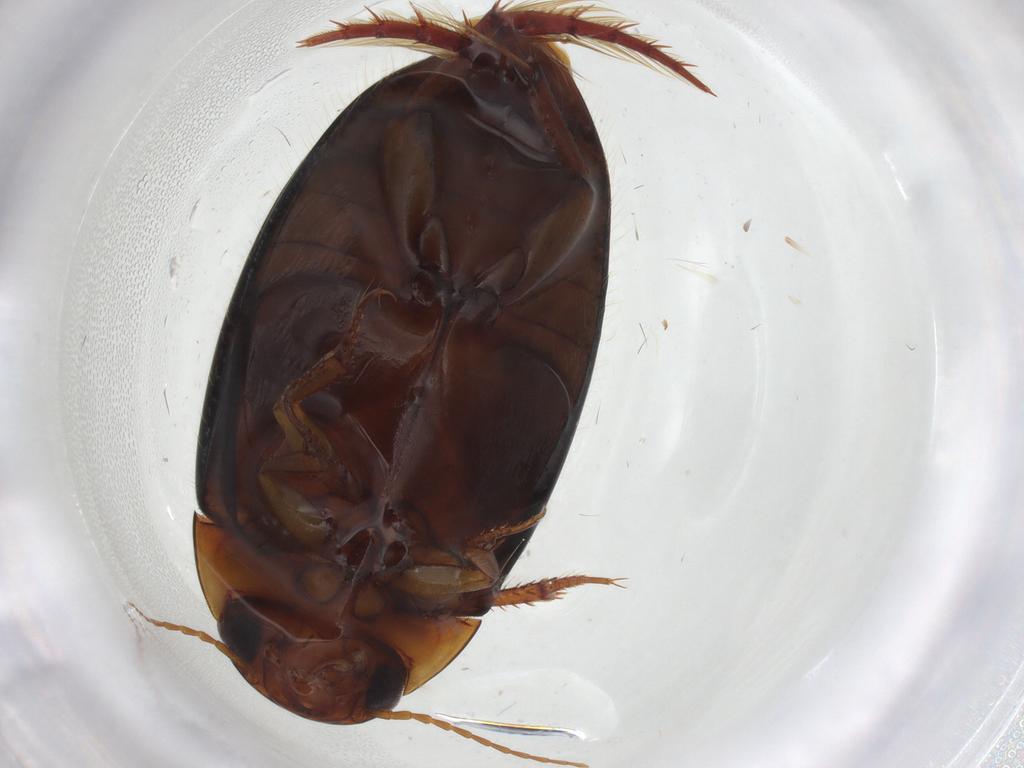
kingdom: Animalia
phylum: Arthropoda
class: Insecta
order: Coleoptera
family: Dytiscidae
